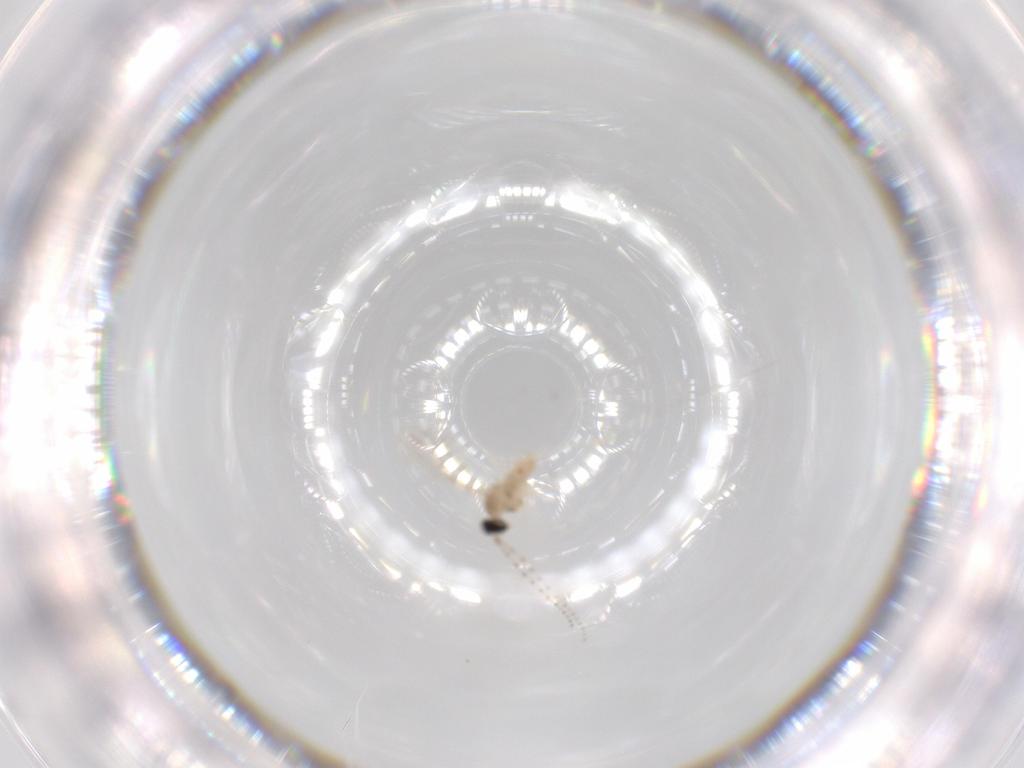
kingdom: Animalia
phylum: Arthropoda
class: Insecta
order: Diptera
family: Cecidomyiidae
